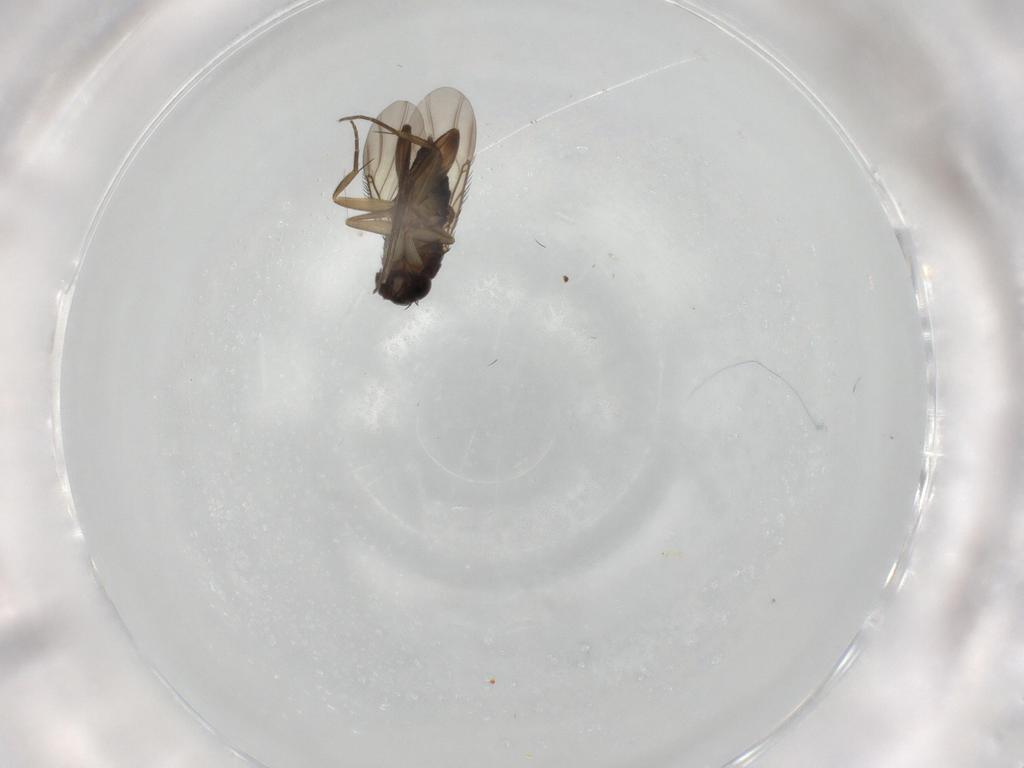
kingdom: Animalia
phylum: Arthropoda
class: Insecta
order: Diptera
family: Phoridae
